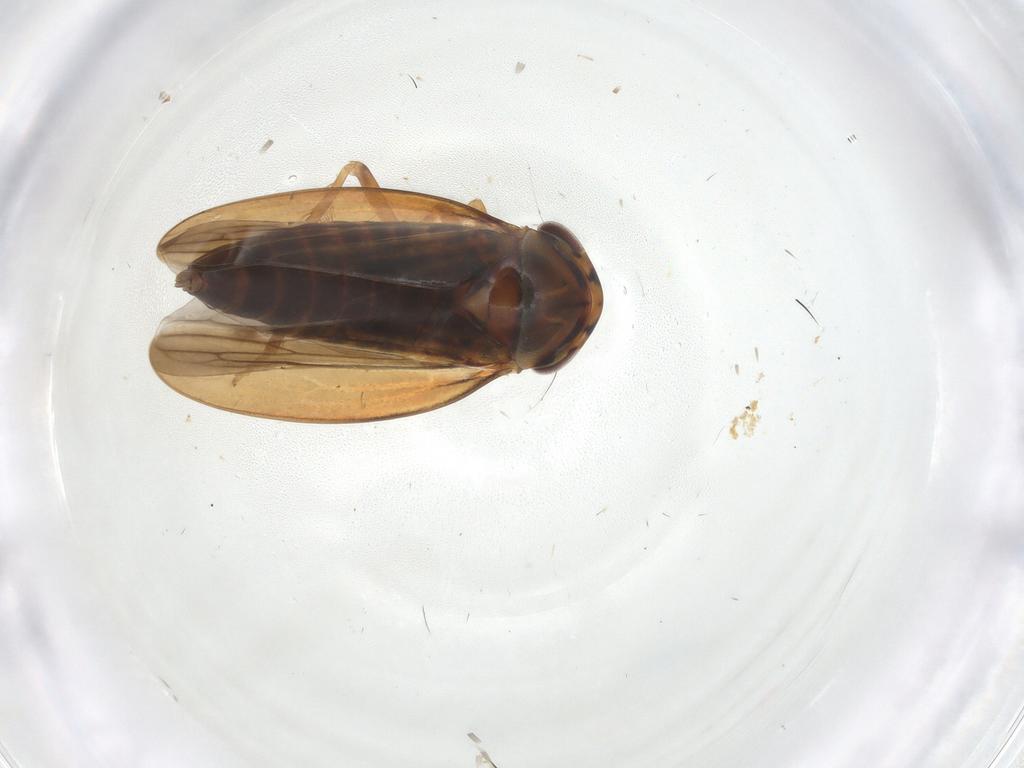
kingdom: Animalia
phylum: Arthropoda
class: Insecta
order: Hemiptera
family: Cicadellidae
